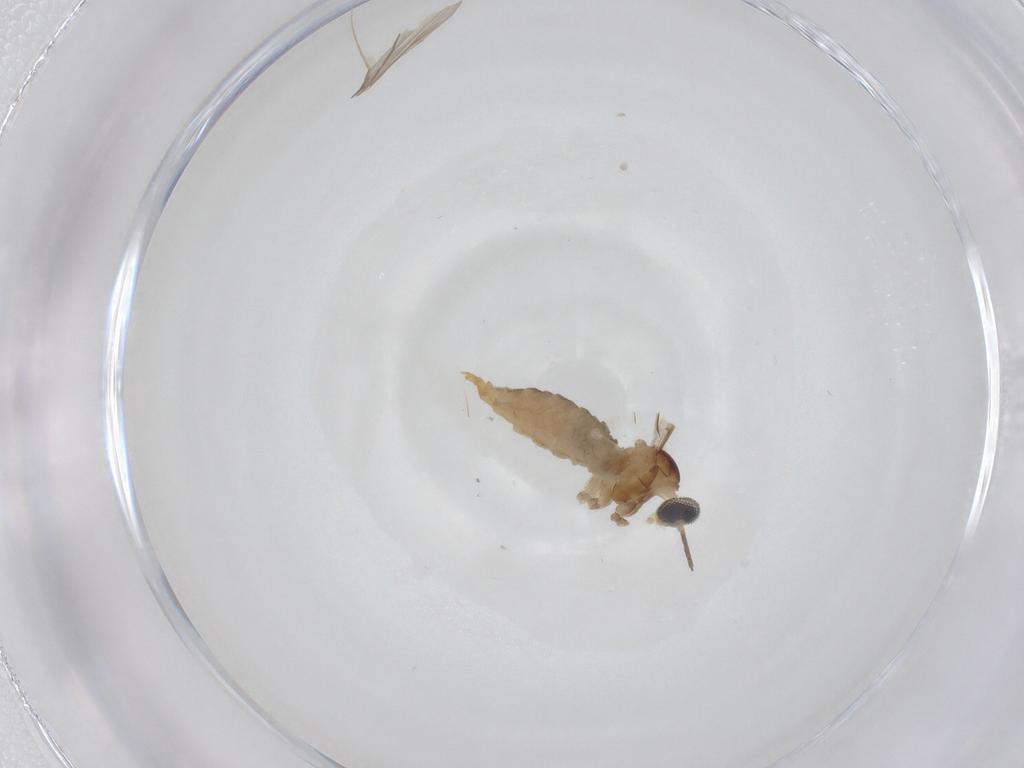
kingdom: Animalia
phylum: Arthropoda
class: Insecta
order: Diptera
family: Cecidomyiidae
